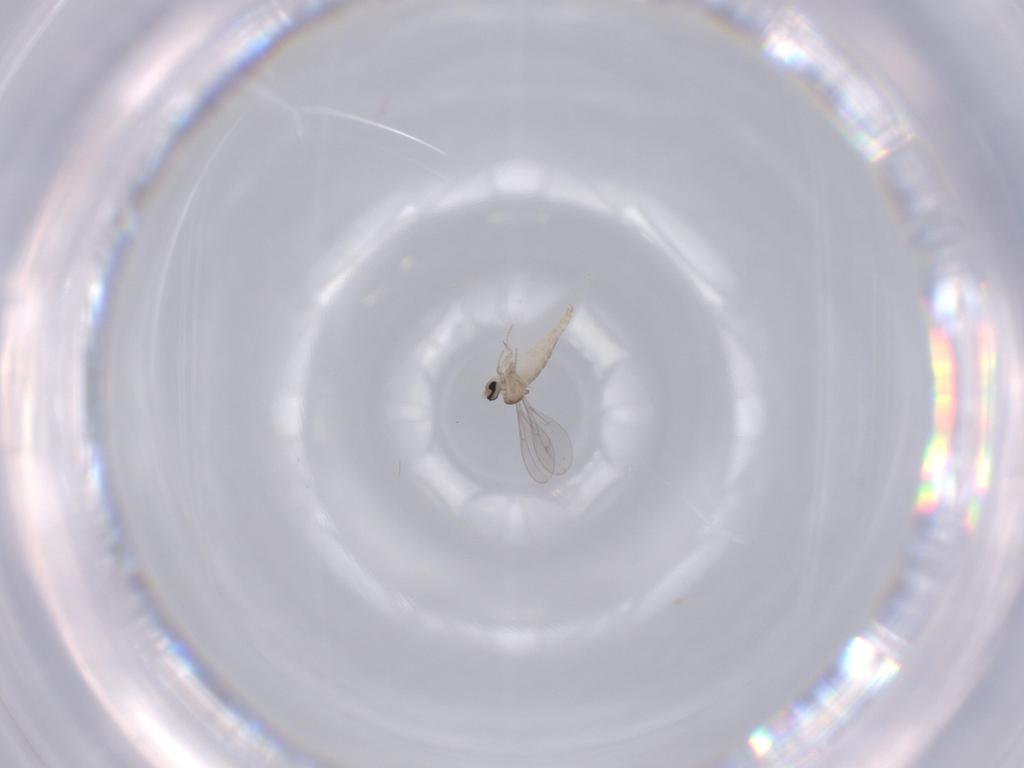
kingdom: Animalia
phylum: Arthropoda
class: Insecta
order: Diptera
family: Cecidomyiidae
